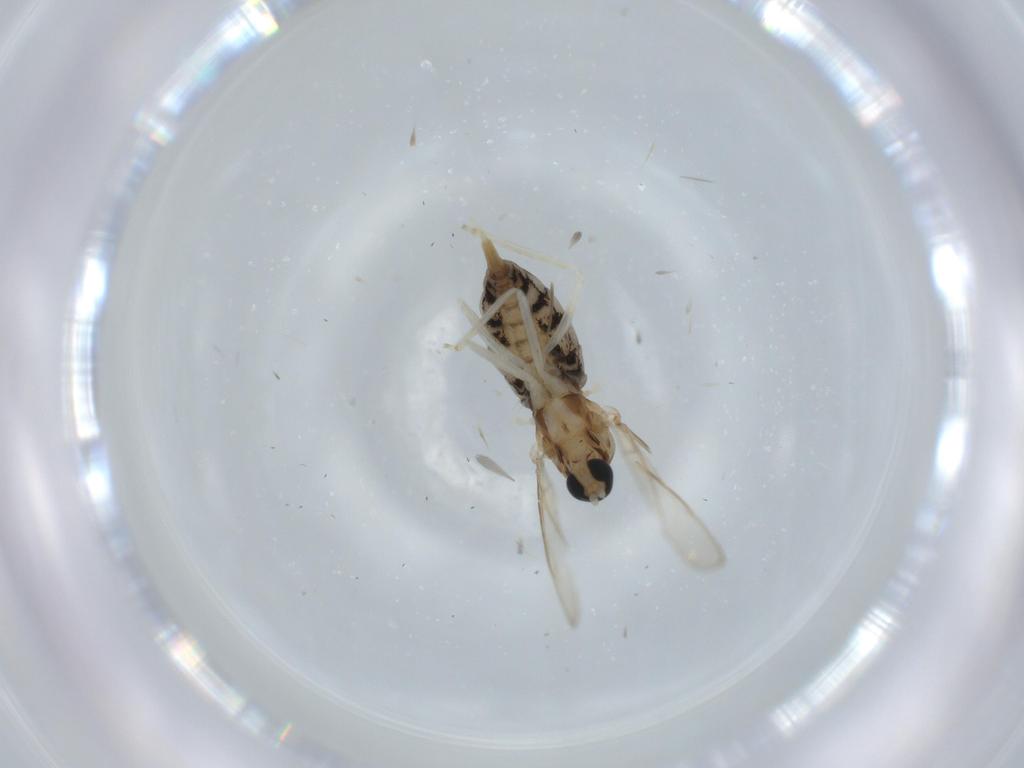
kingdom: Animalia
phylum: Arthropoda
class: Insecta
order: Diptera
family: Cecidomyiidae
